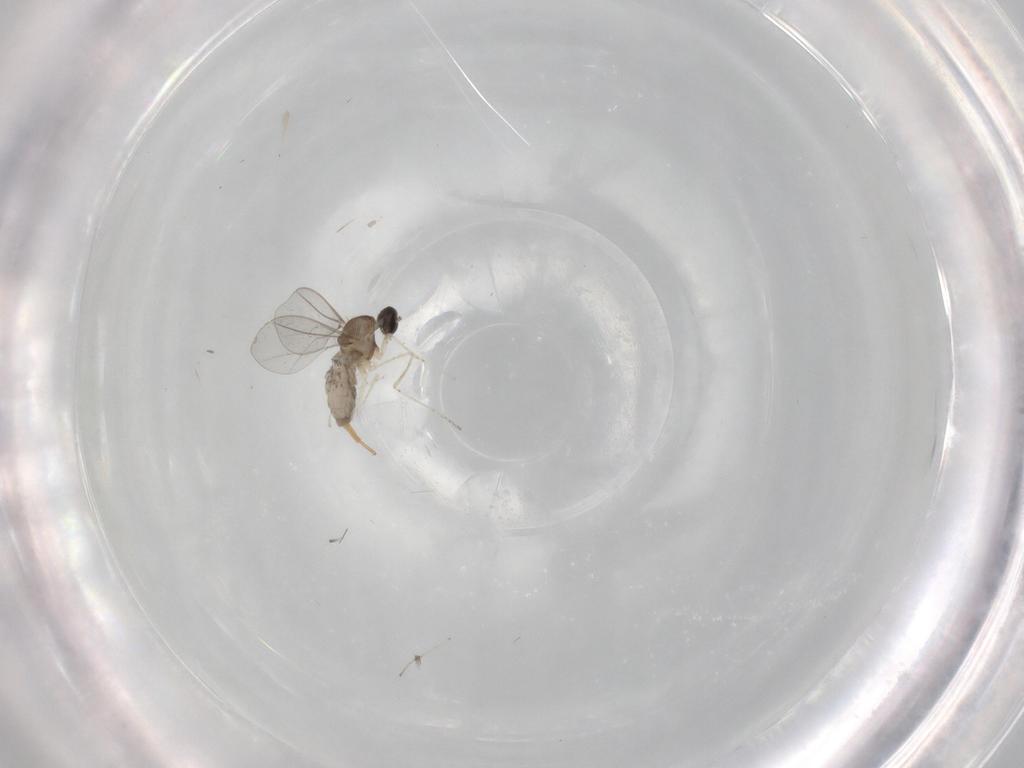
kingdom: Animalia
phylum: Arthropoda
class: Insecta
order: Diptera
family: Cecidomyiidae
